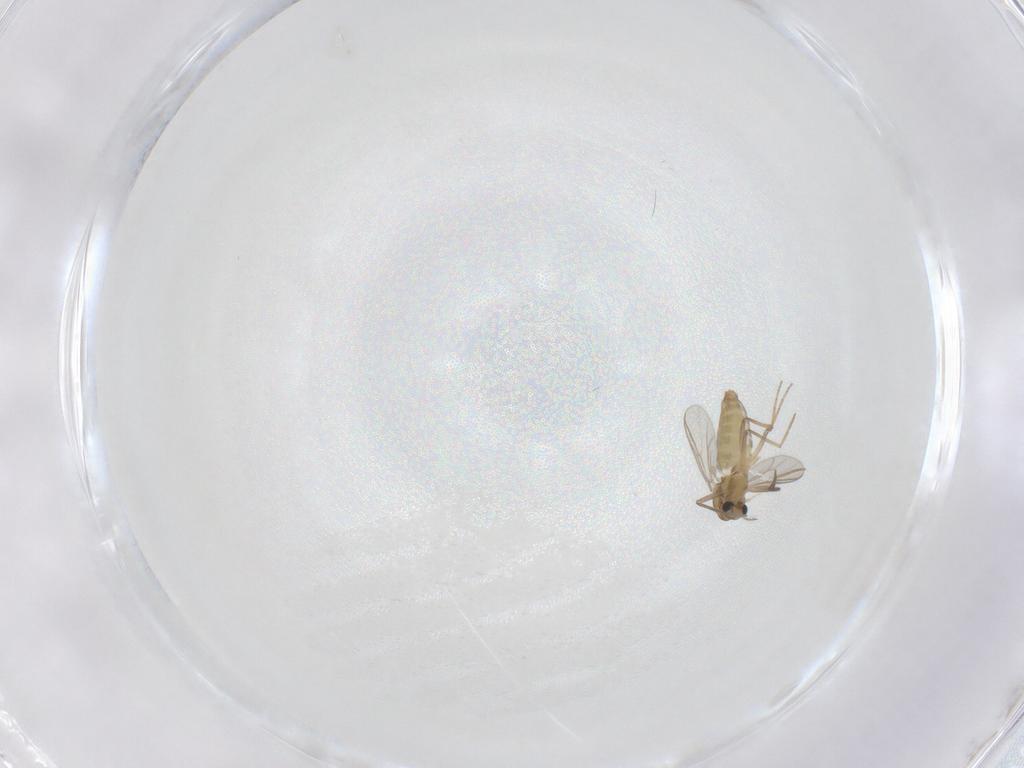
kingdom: Animalia
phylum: Arthropoda
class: Insecta
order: Diptera
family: Chironomidae
